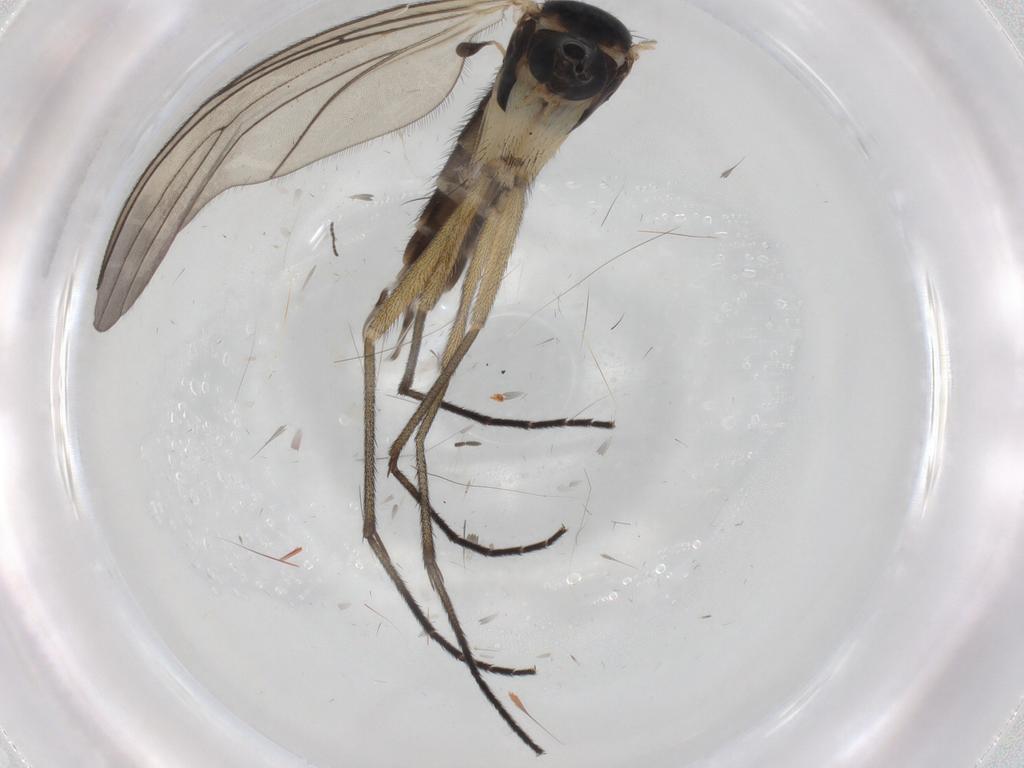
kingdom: Animalia
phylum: Arthropoda
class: Insecta
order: Diptera
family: Sciaridae
